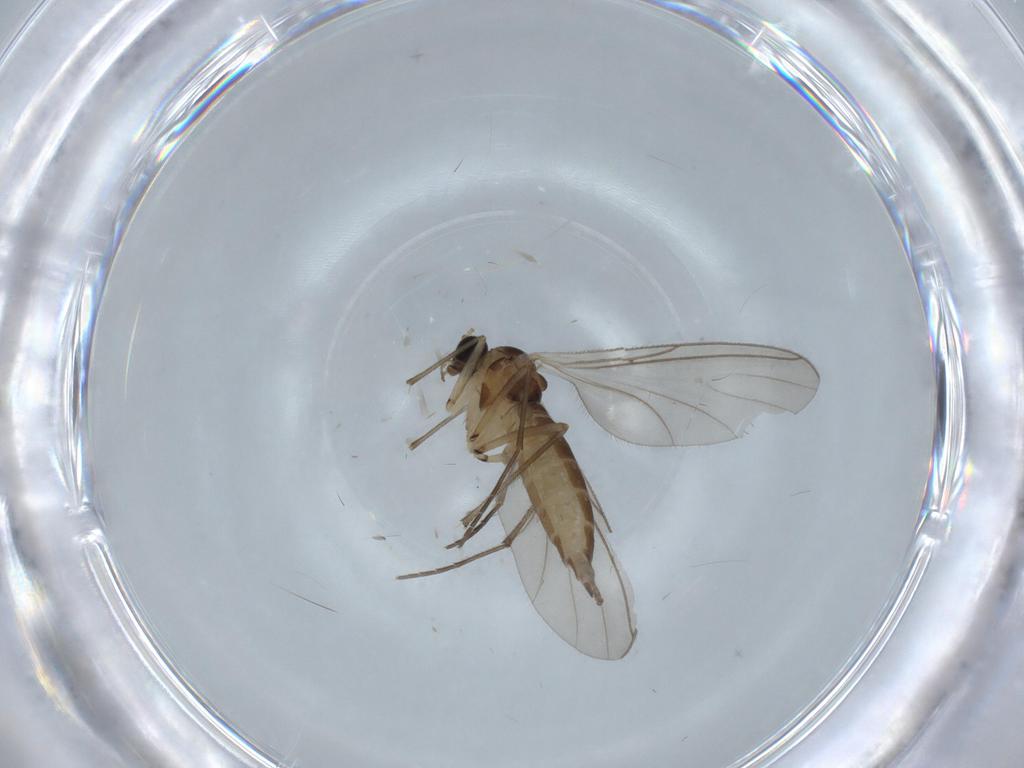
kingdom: Animalia
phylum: Arthropoda
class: Insecta
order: Diptera
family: Sciaridae
